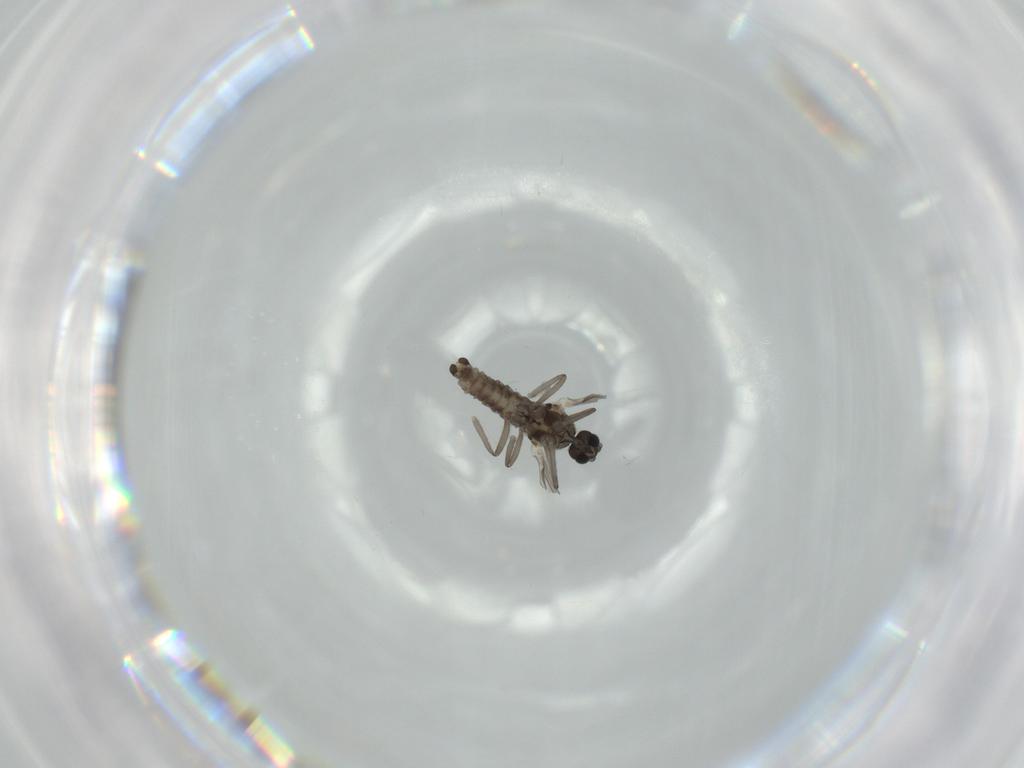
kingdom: Animalia
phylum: Arthropoda
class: Insecta
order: Diptera
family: Cecidomyiidae
